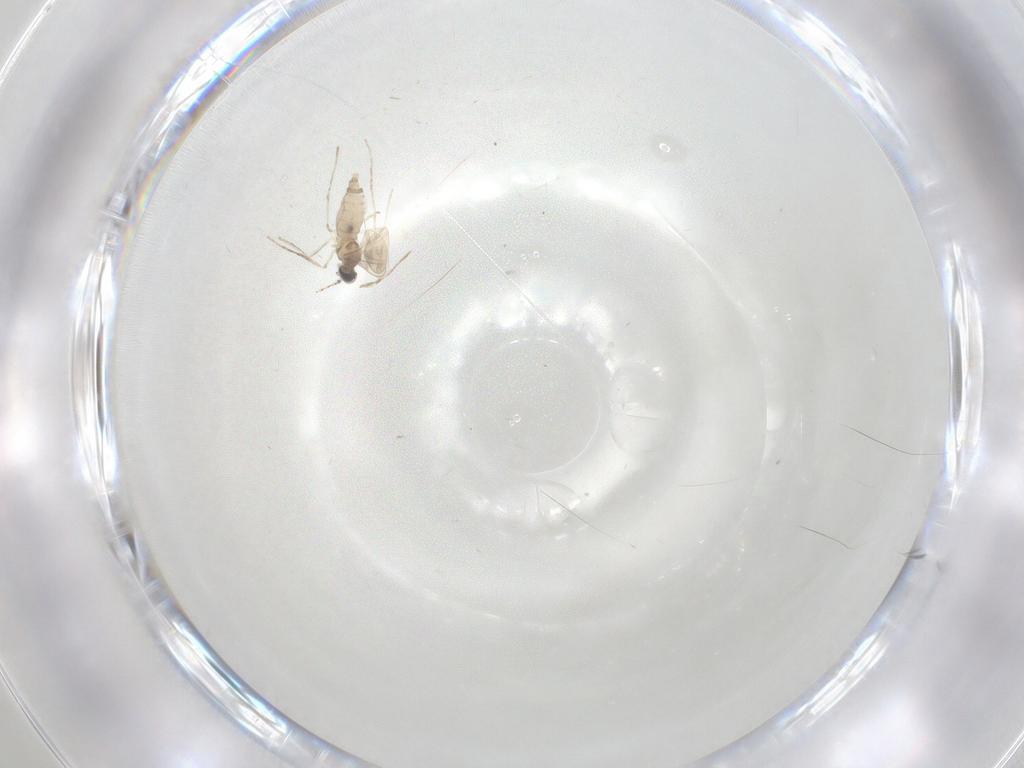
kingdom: Animalia
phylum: Arthropoda
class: Insecta
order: Diptera
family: Cecidomyiidae
